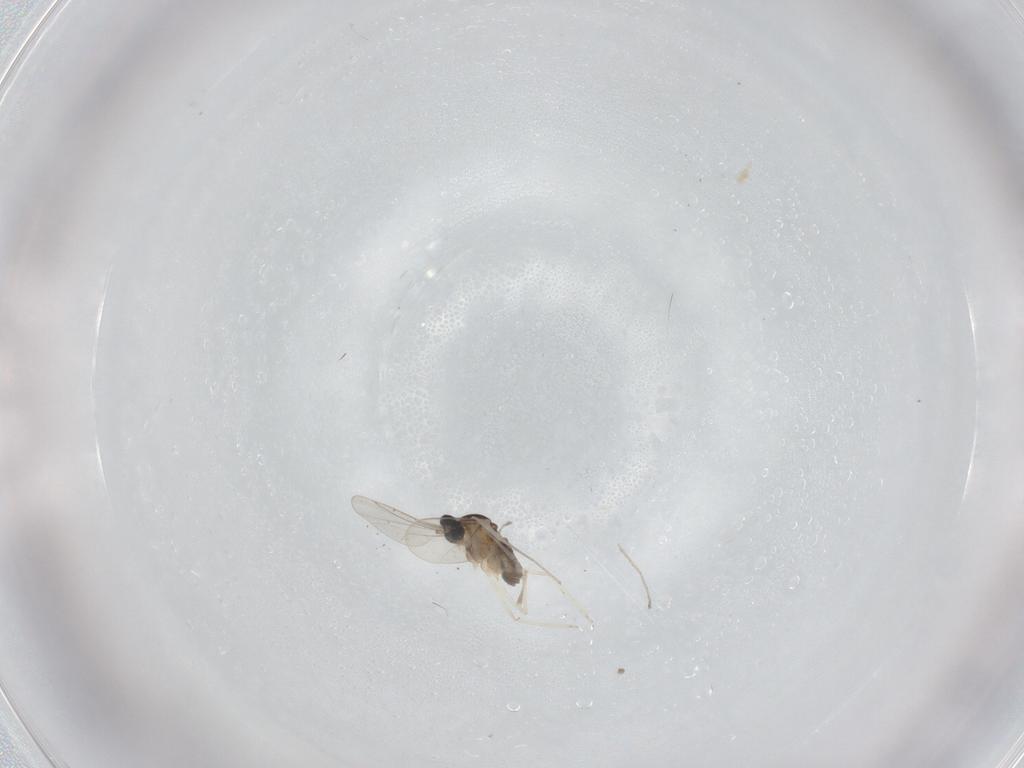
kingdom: Animalia
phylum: Arthropoda
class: Insecta
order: Diptera
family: Cecidomyiidae
